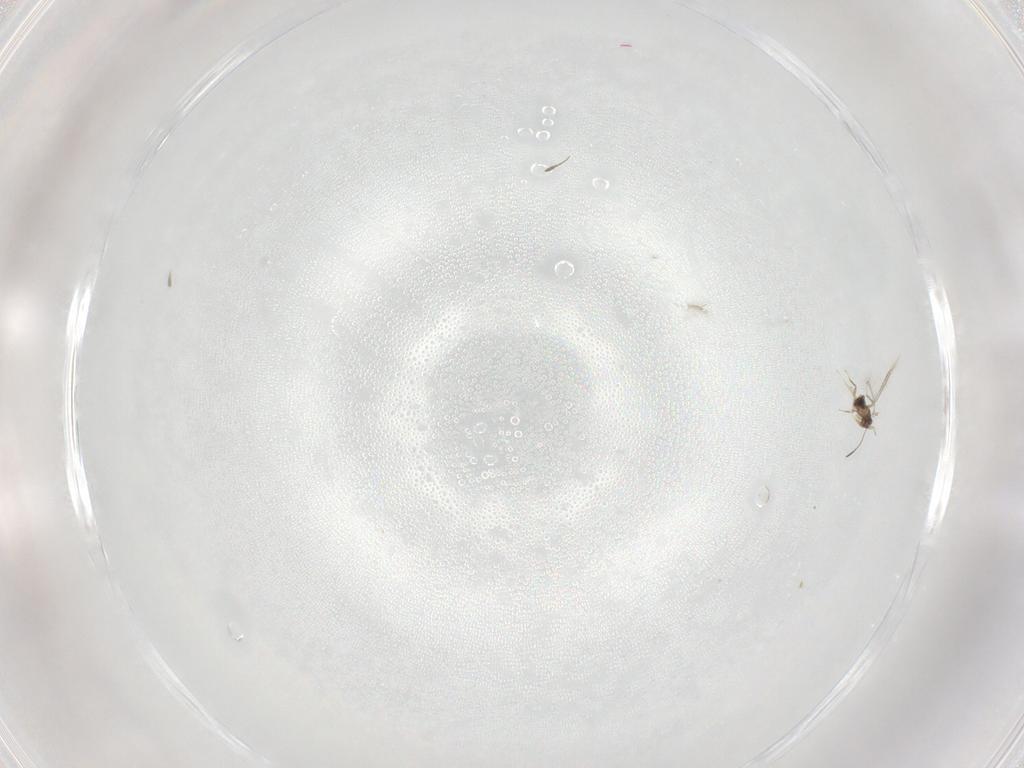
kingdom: Animalia
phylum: Arthropoda
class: Insecta
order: Hymenoptera
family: Mymaridae
